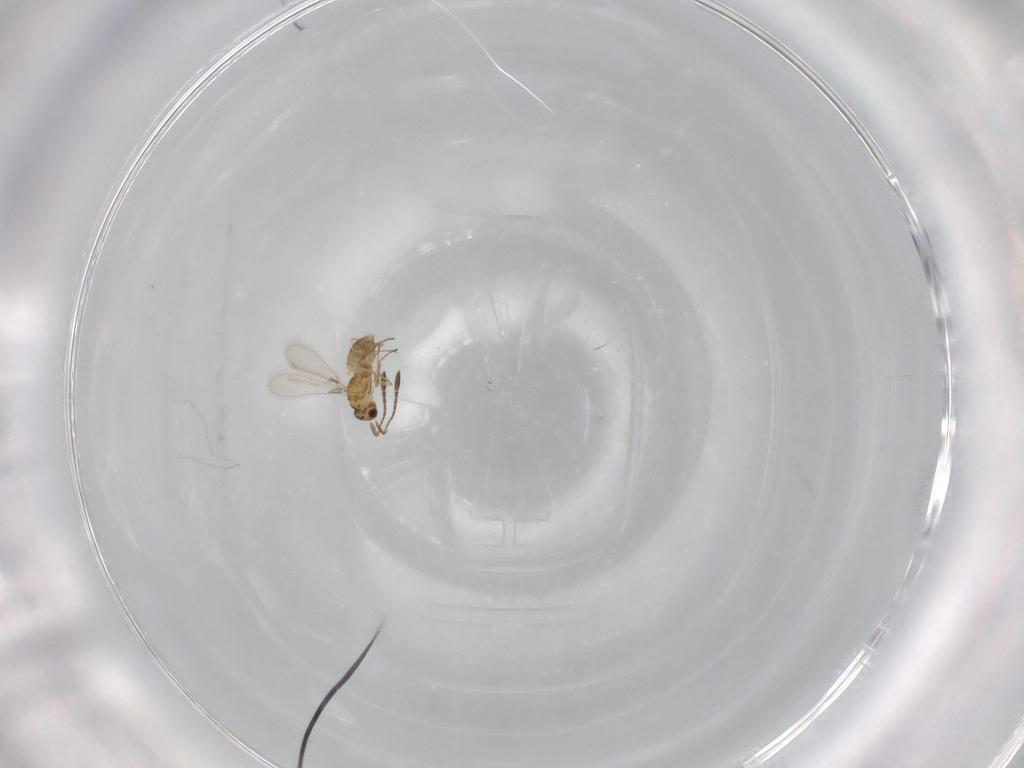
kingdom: Animalia
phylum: Arthropoda
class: Insecta
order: Hymenoptera
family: Mymaridae
